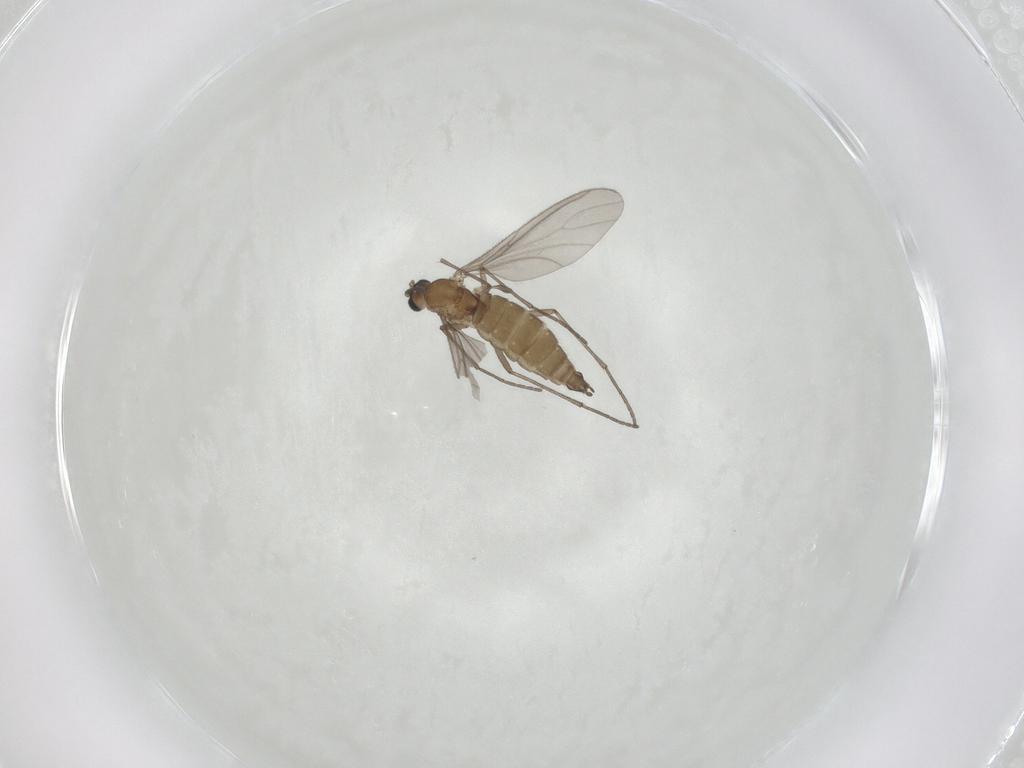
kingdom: Animalia
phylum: Arthropoda
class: Insecta
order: Diptera
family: Sciaridae
